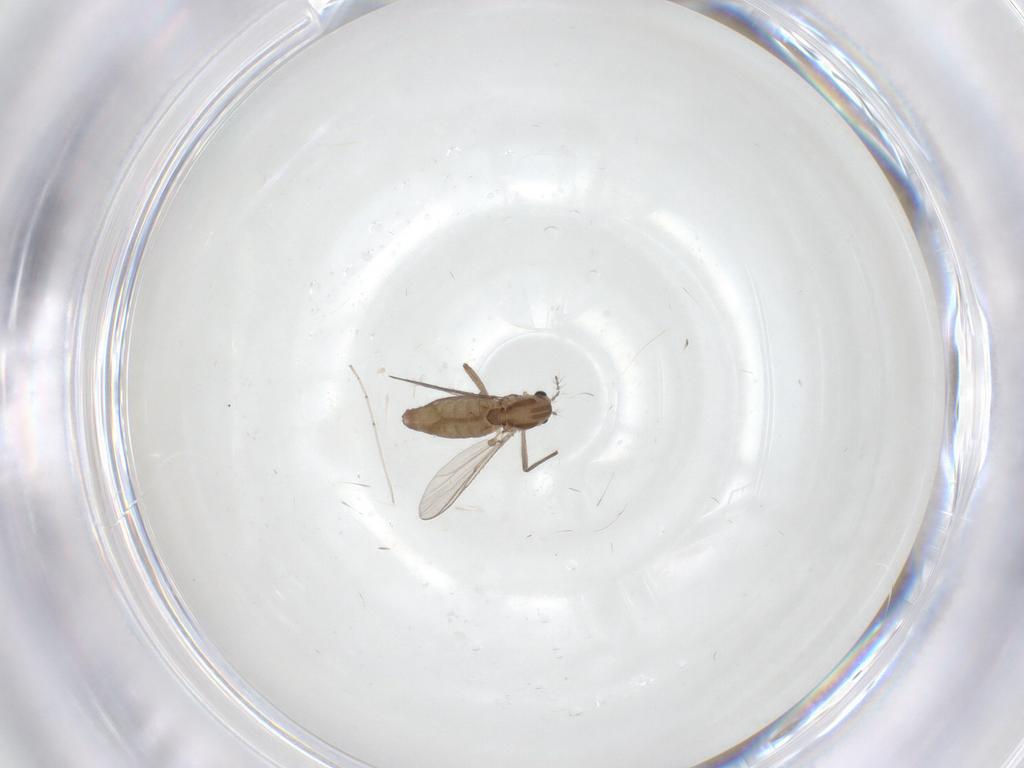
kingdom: Animalia
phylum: Arthropoda
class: Insecta
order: Diptera
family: Chironomidae
